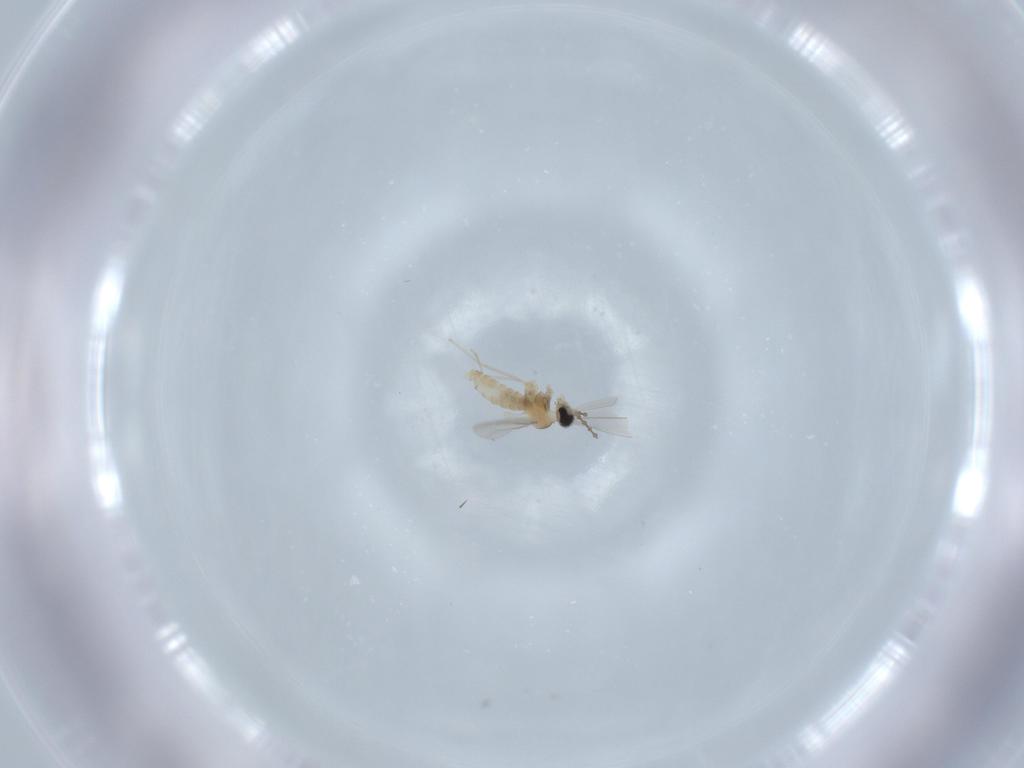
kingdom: Animalia
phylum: Arthropoda
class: Insecta
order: Diptera
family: Cecidomyiidae
